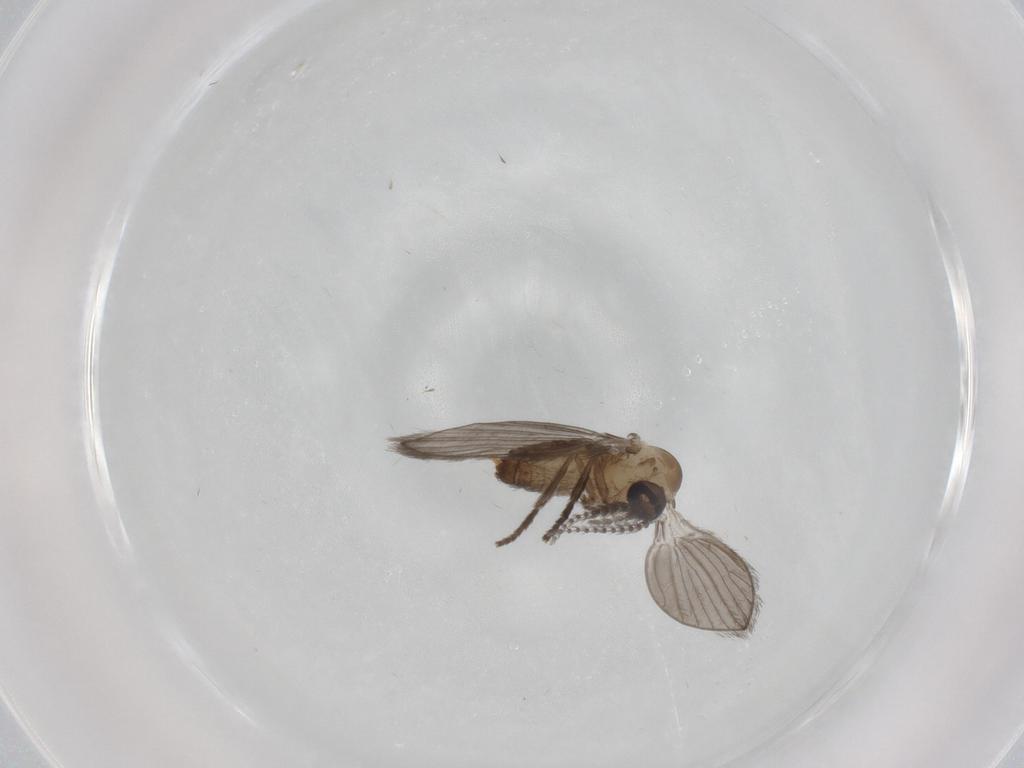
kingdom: Animalia
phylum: Arthropoda
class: Insecta
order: Diptera
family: Psychodidae
